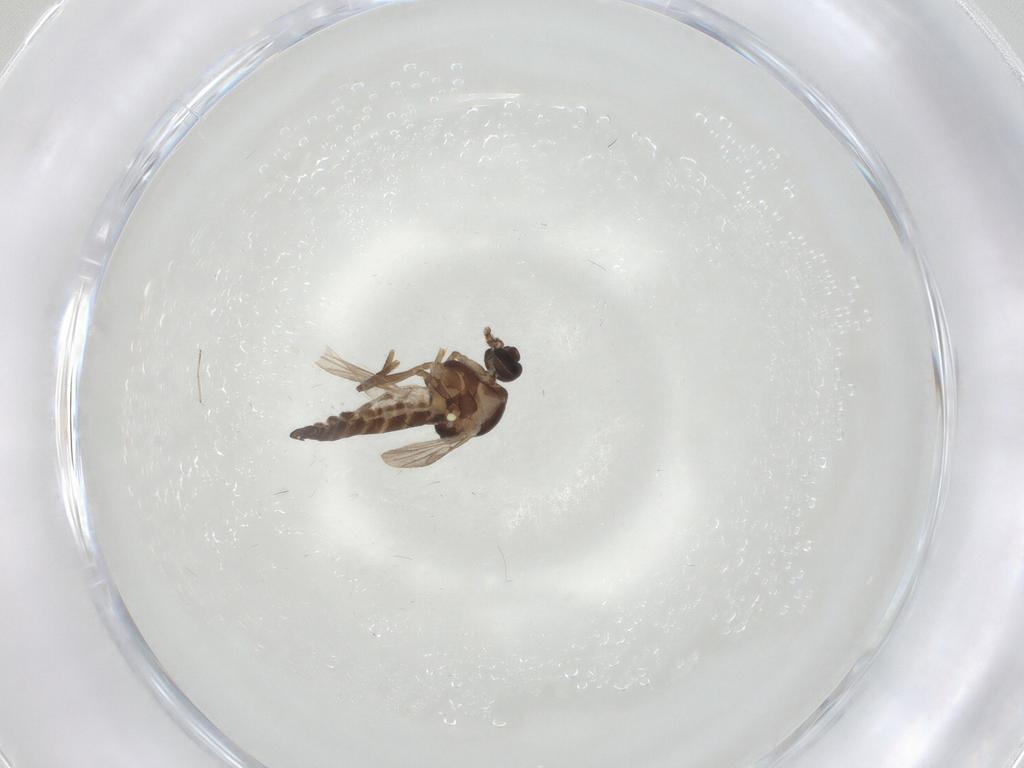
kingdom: Animalia
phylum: Arthropoda
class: Insecta
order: Diptera
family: Ceratopogonidae
